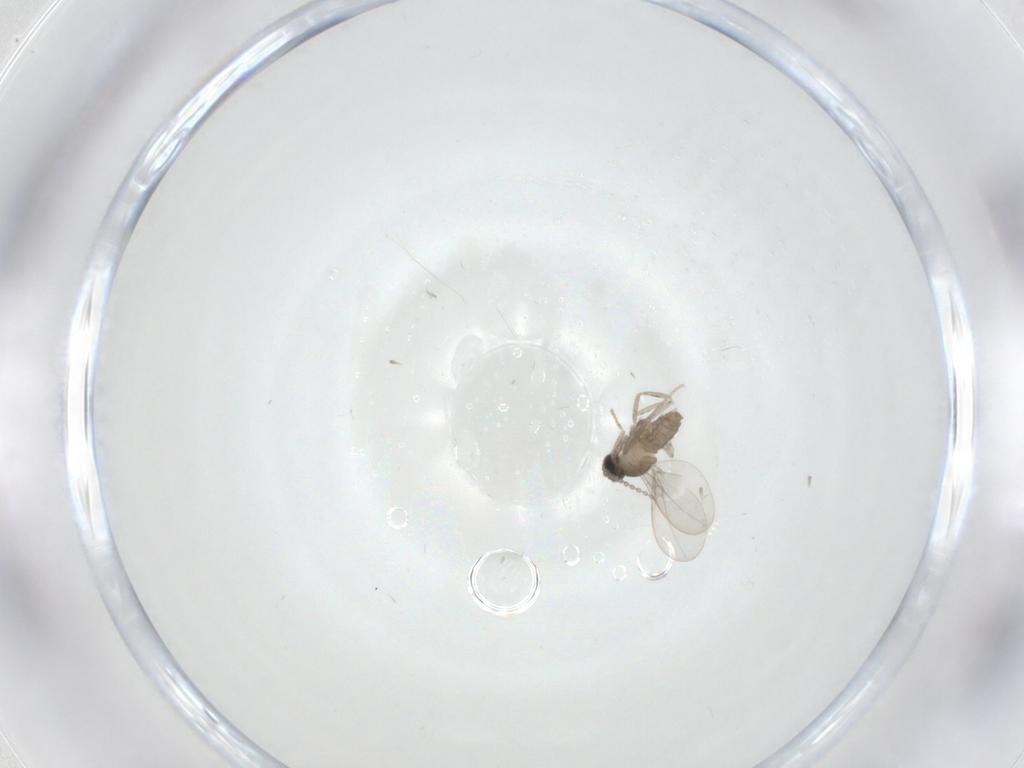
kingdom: Animalia
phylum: Arthropoda
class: Insecta
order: Diptera
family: Cecidomyiidae
